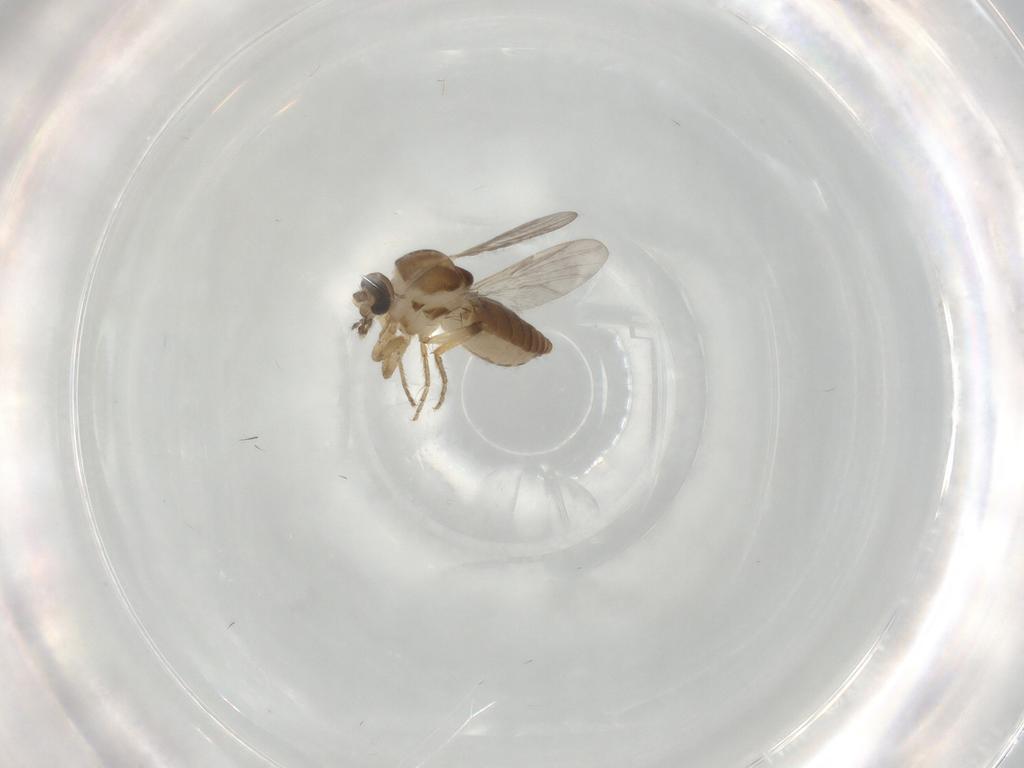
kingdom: Animalia
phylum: Arthropoda
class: Insecta
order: Diptera
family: Ceratopogonidae
